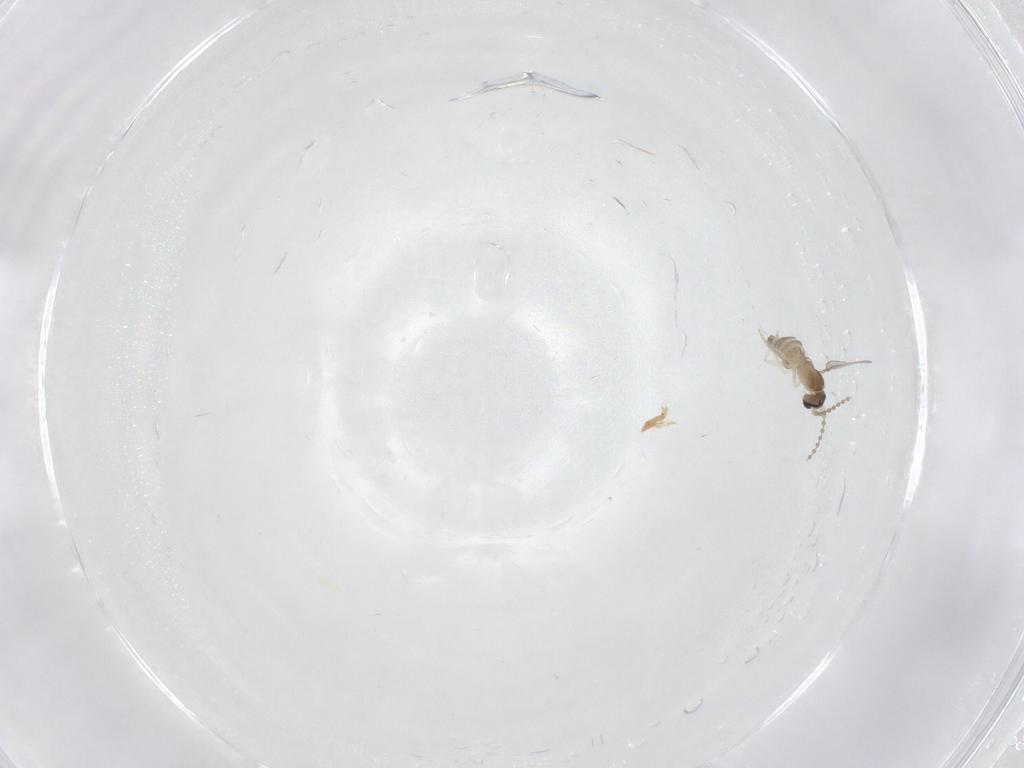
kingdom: Animalia
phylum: Arthropoda
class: Insecta
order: Diptera
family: Cecidomyiidae
